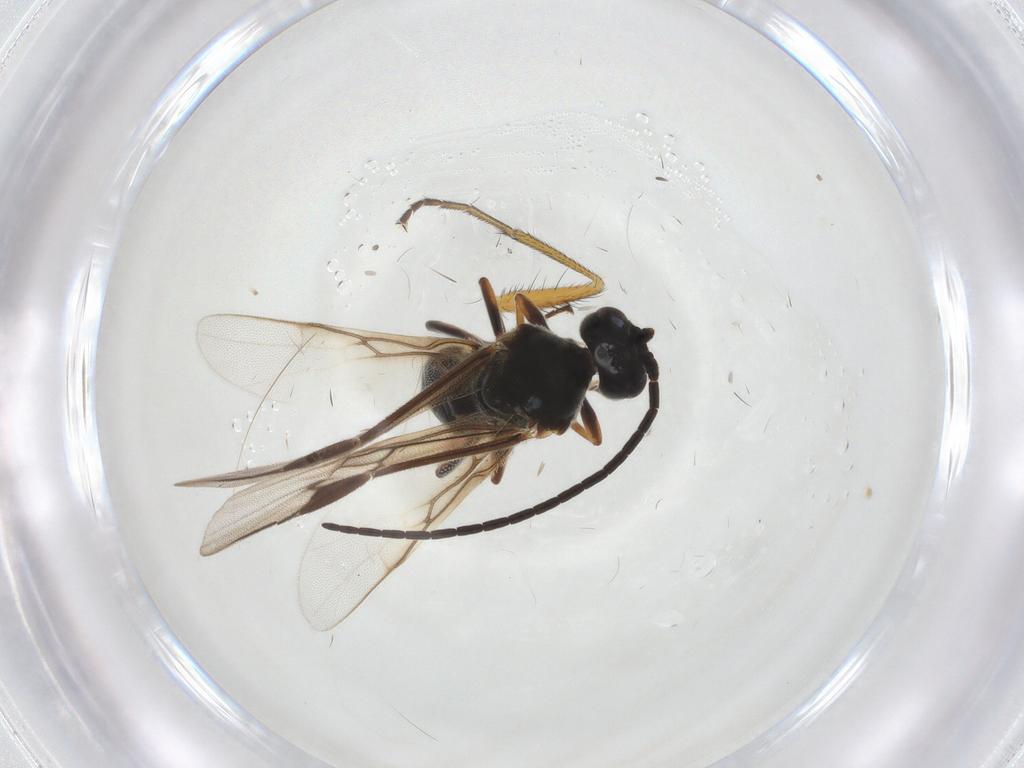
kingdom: Animalia
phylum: Arthropoda
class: Insecta
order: Hymenoptera
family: Braconidae
